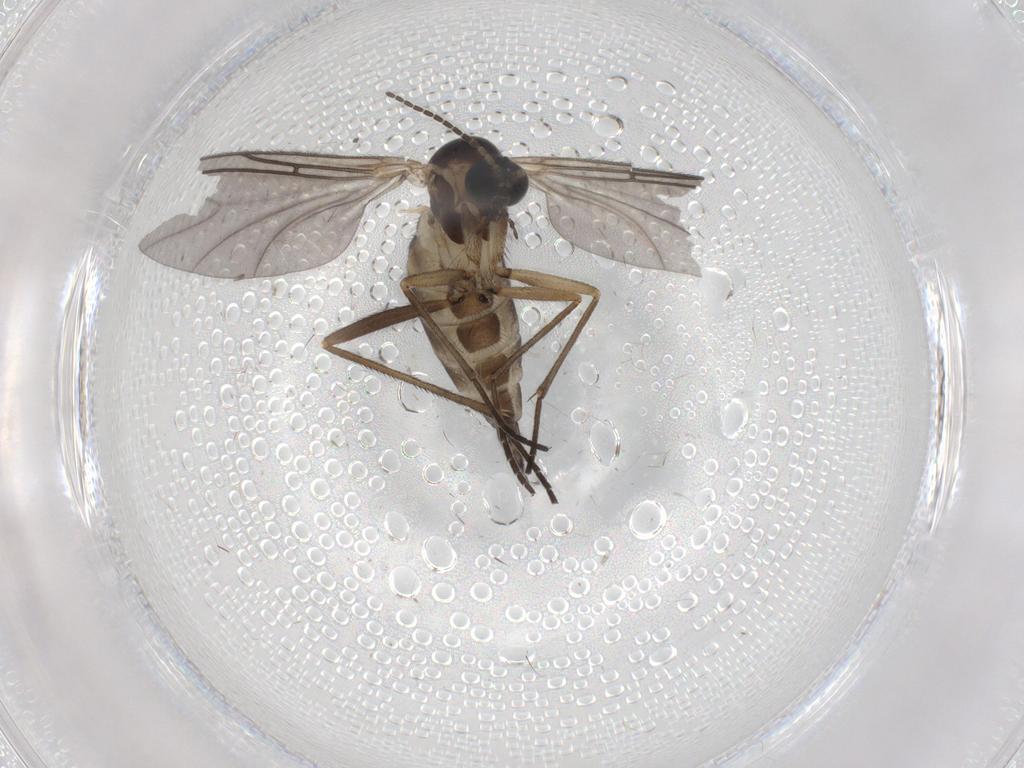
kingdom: Animalia
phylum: Arthropoda
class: Insecta
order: Diptera
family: Sciaridae
